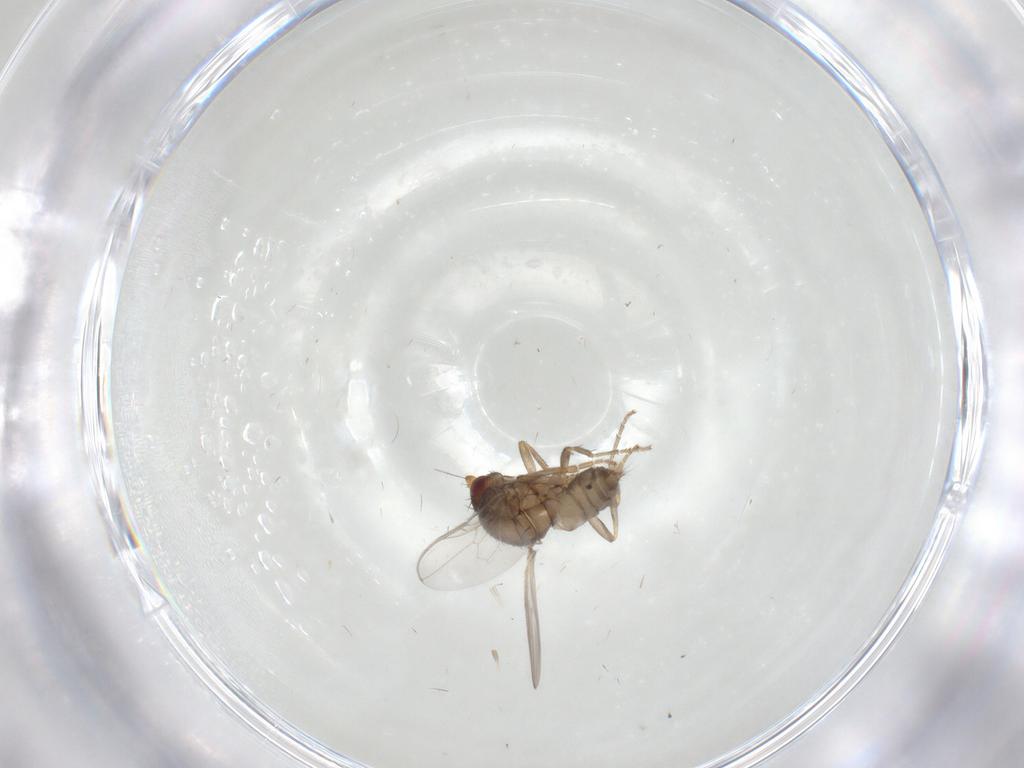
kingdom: Animalia
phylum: Arthropoda
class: Insecta
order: Diptera
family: Sphaeroceridae
